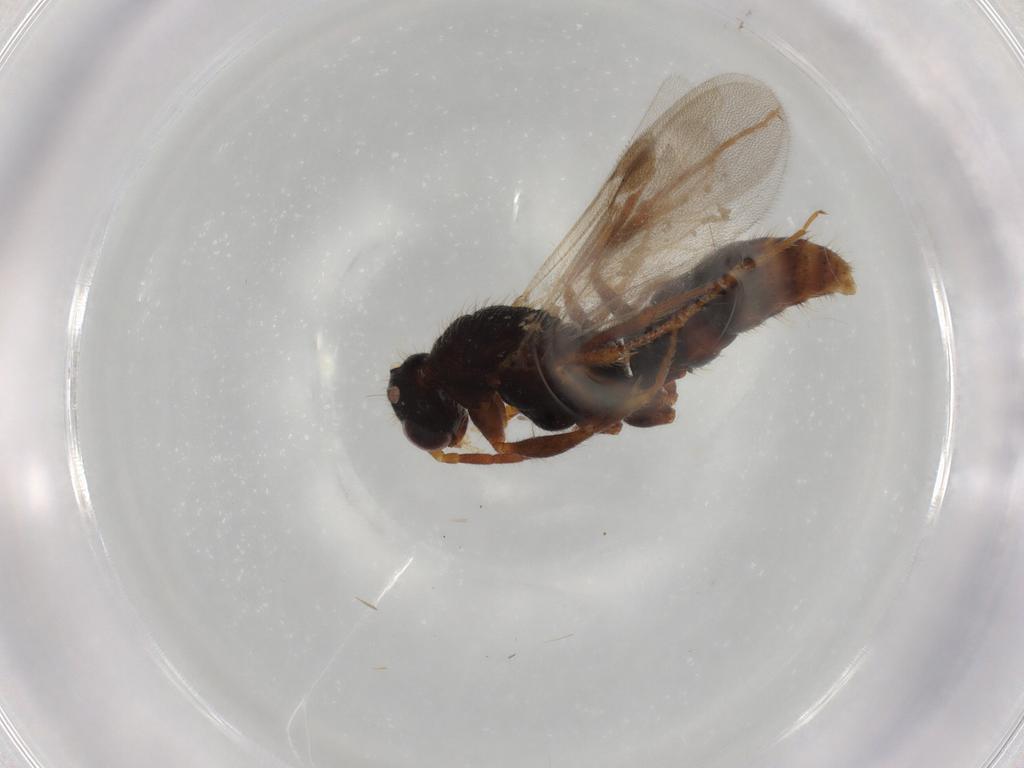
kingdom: Animalia
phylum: Arthropoda
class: Insecta
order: Hymenoptera
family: Formicidae
